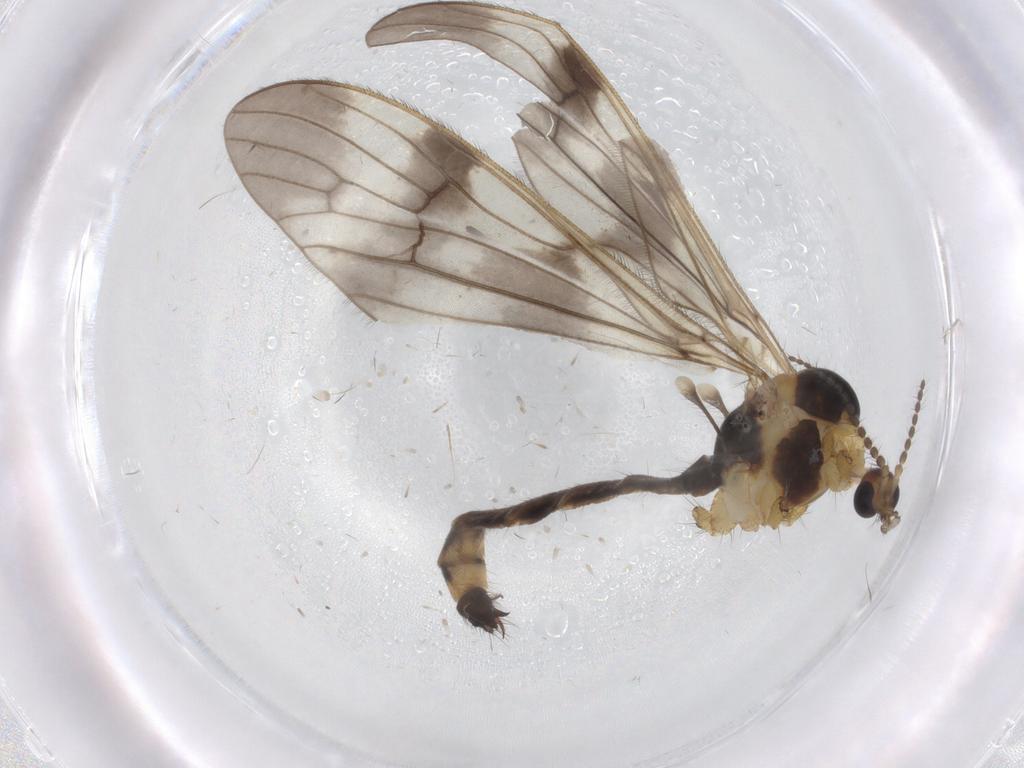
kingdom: Animalia
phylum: Arthropoda
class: Insecta
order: Diptera
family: Limoniidae
